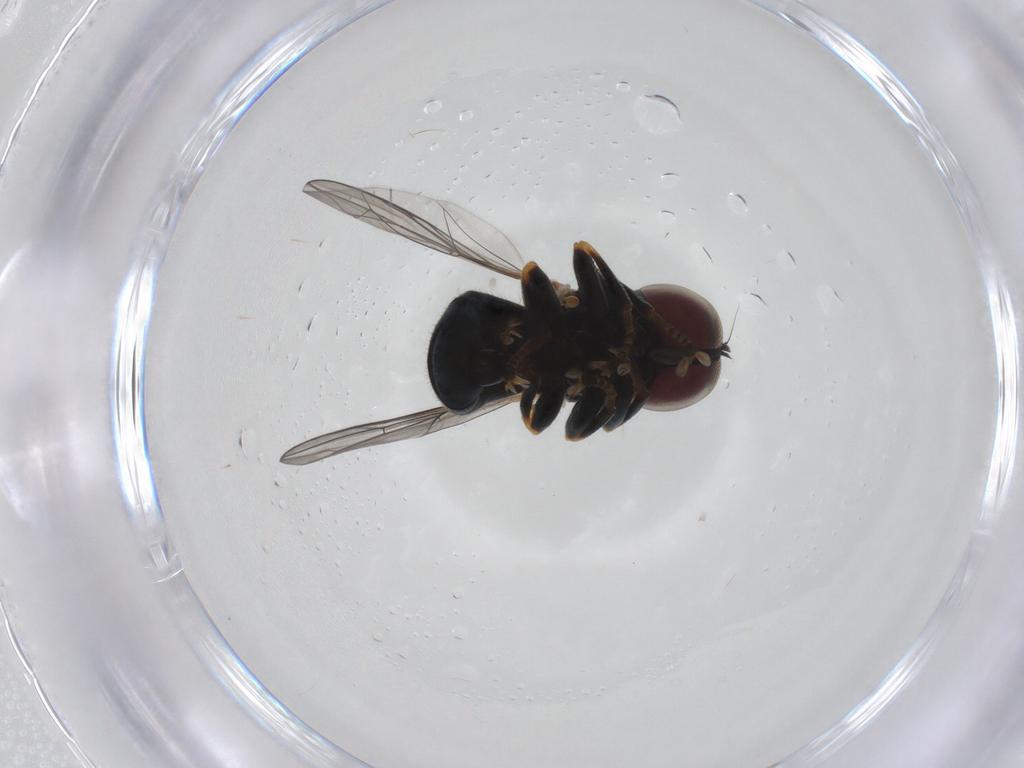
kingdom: Animalia
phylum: Arthropoda
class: Insecta
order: Diptera
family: Pipunculidae
